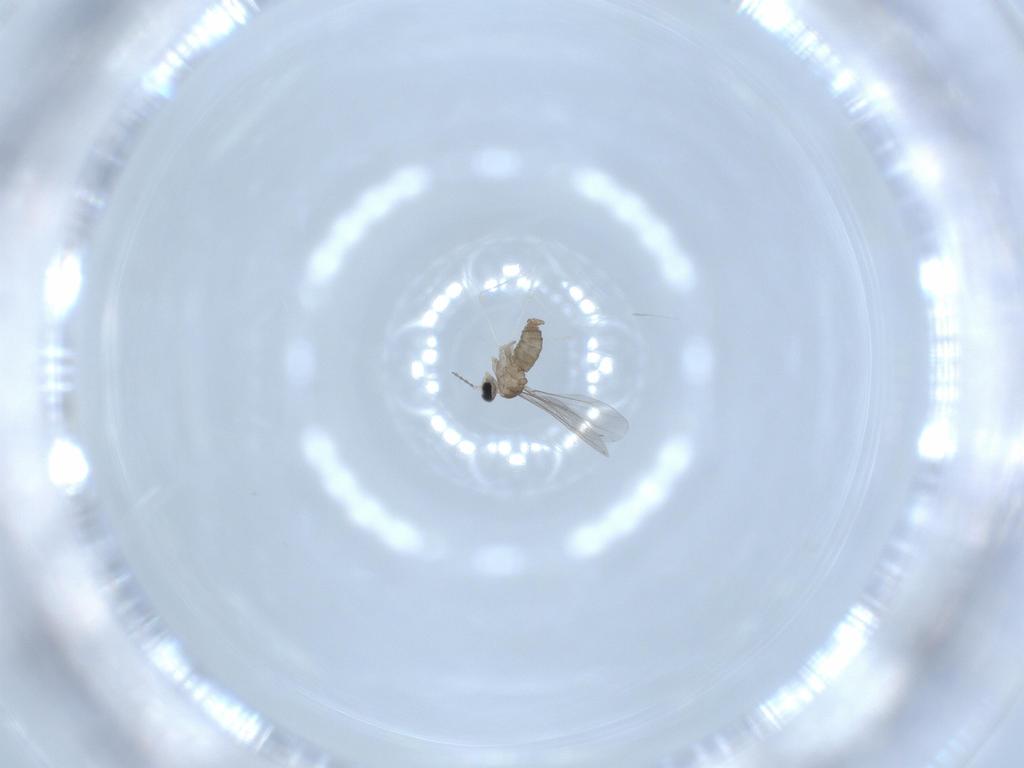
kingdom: Animalia
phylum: Arthropoda
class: Insecta
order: Diptera
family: Cecidomyiidae
